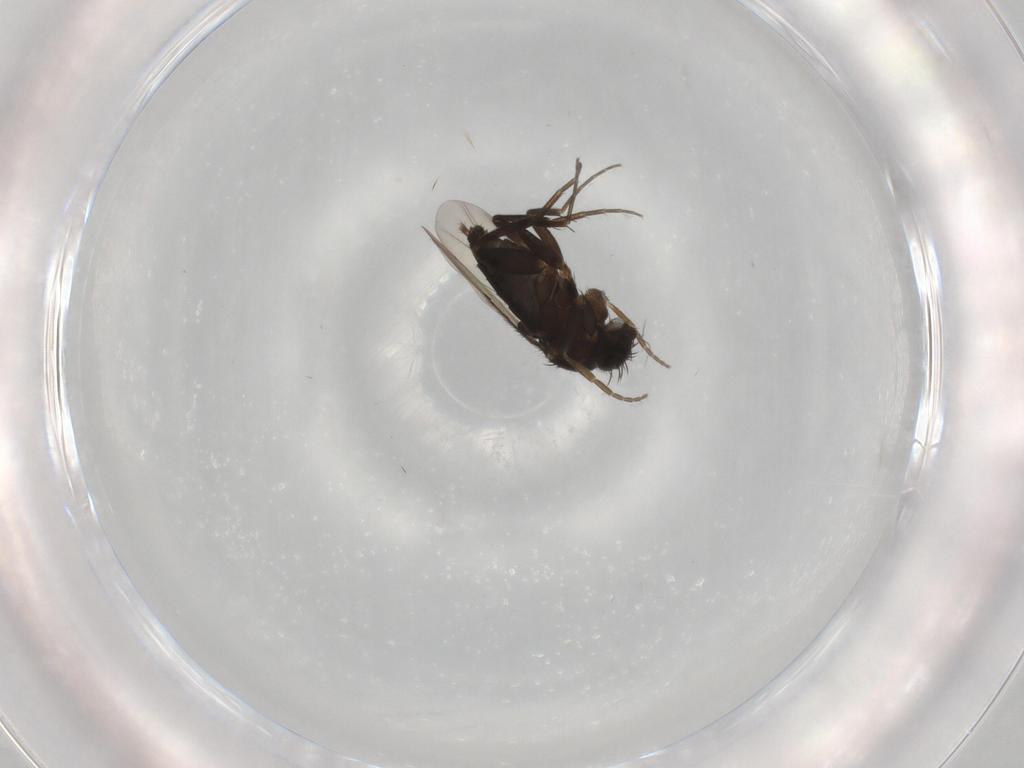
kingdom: Animalia
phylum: Arthropoda
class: Insecta
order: Diptera
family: Phoridae
